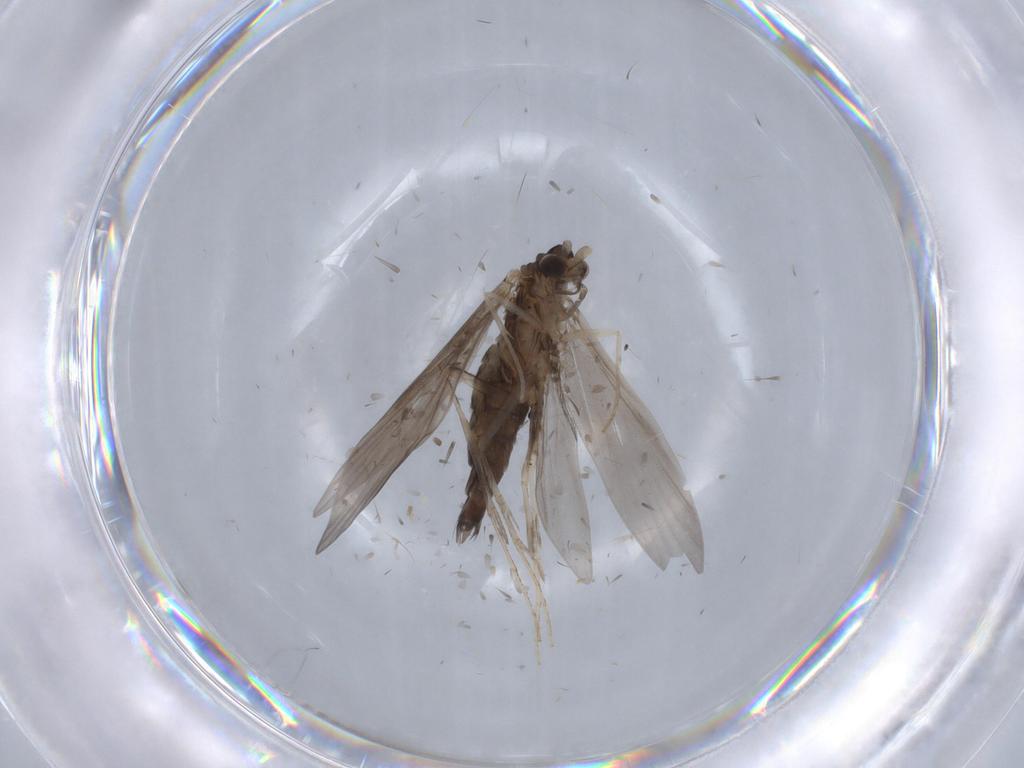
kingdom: Animalia
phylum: Arthropoda
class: Insecta
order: Trichoptera
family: Xiphocentronidae
